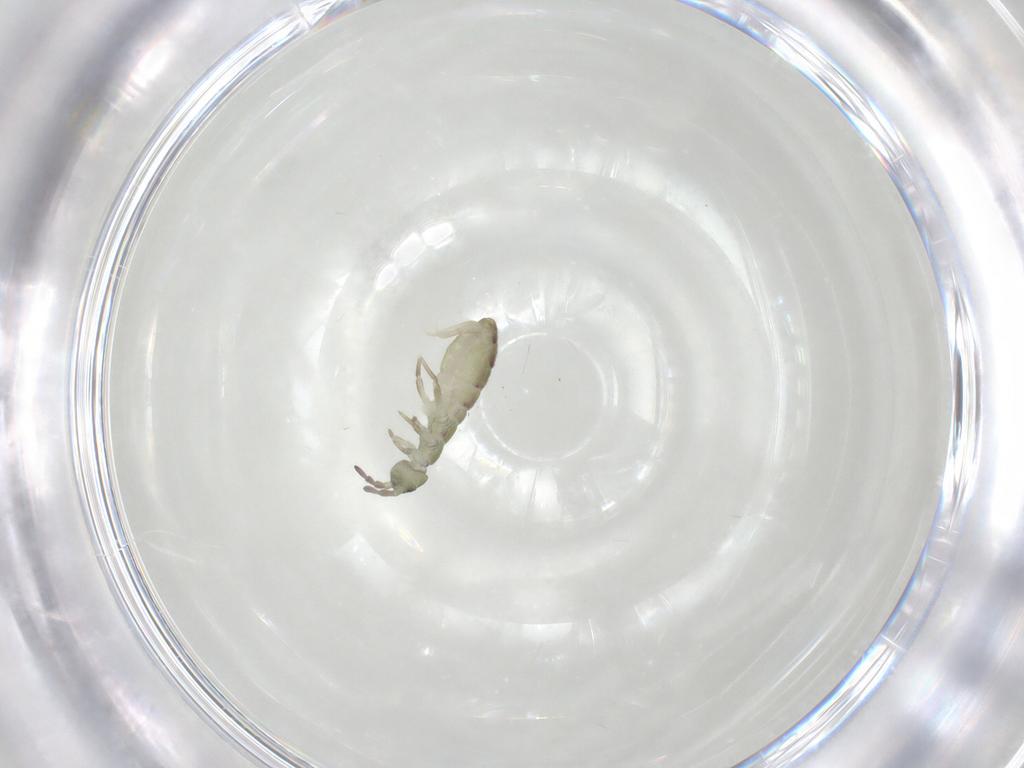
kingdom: Animalia
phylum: Arthropoda
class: Collembola
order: Entomobryomorpha
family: Isotomidae
